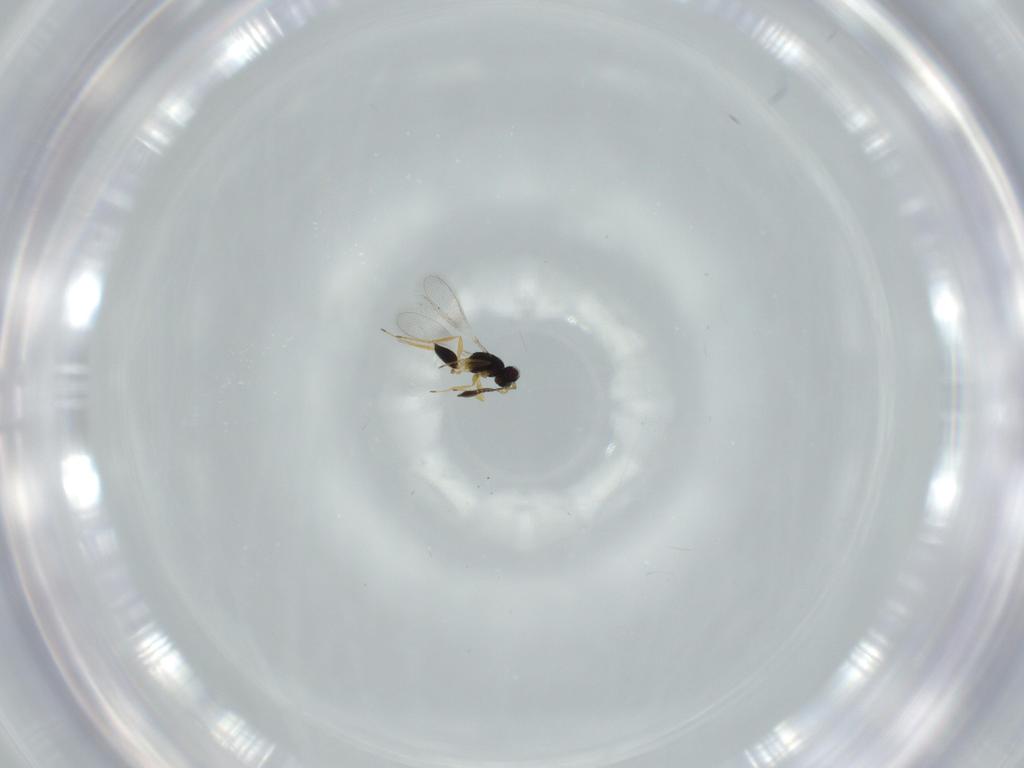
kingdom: Animalia
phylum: Arthropoda
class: Insecta
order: Hymenoptera
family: Mymaridae
